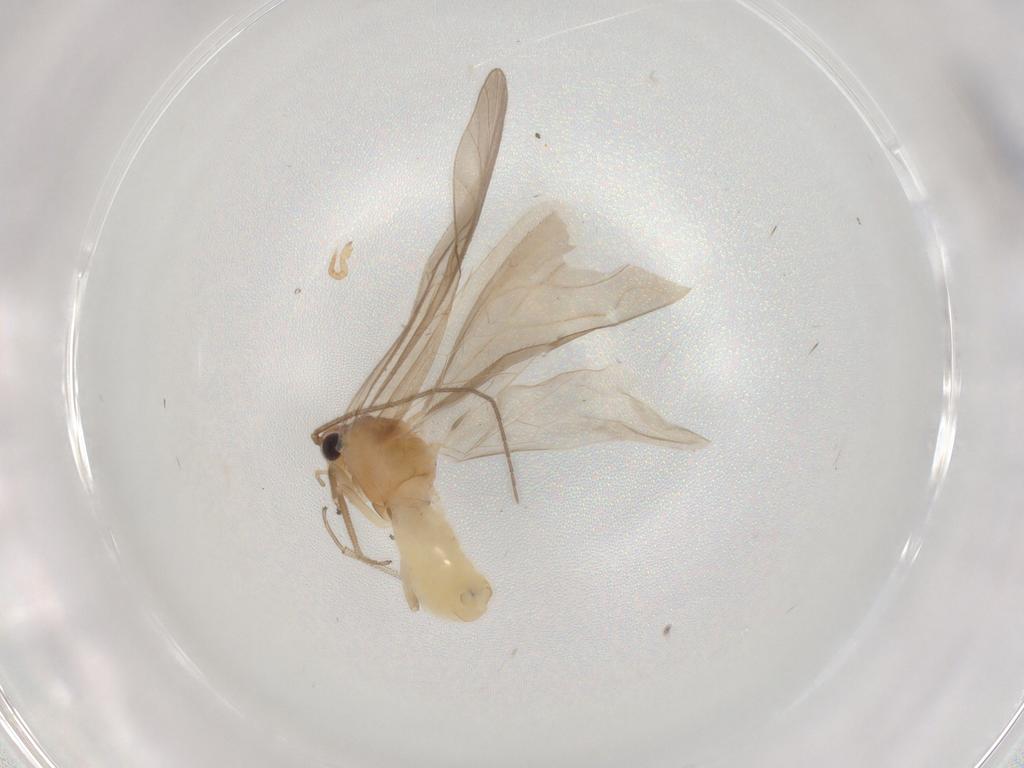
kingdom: Animalia
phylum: Arthropoda
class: Insecta
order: Psocodea
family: Caeciliusidae
